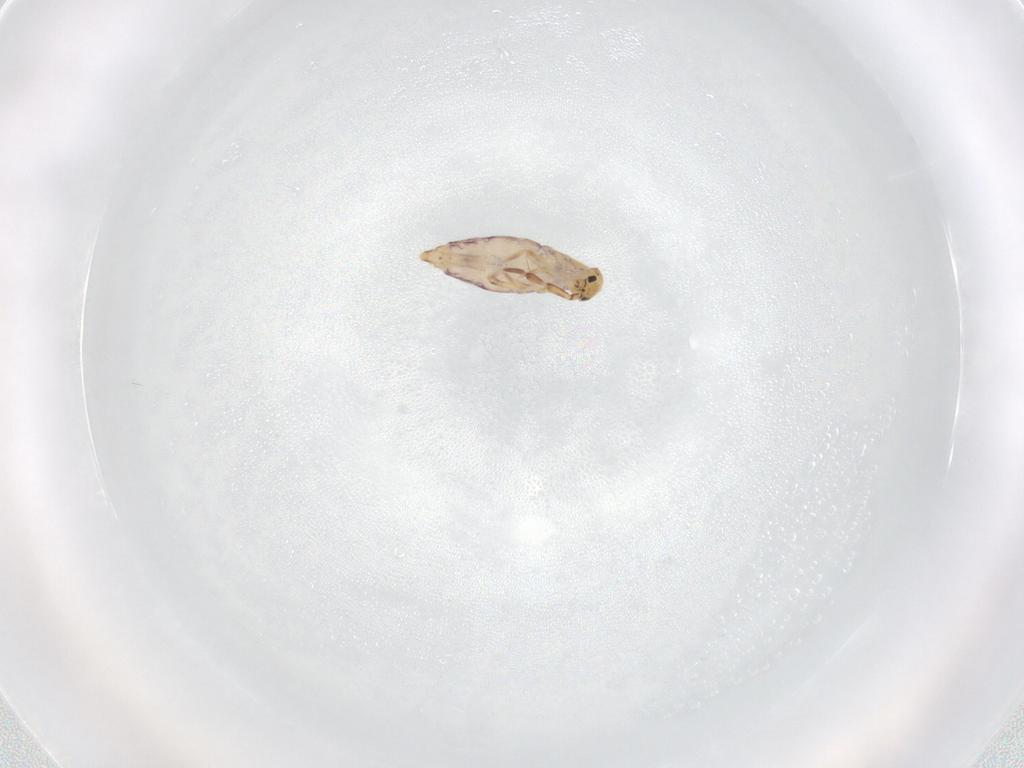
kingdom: Animalia
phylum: Arthropoda
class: Collembola
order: Entomobryomorpha
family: Entomobryidae
